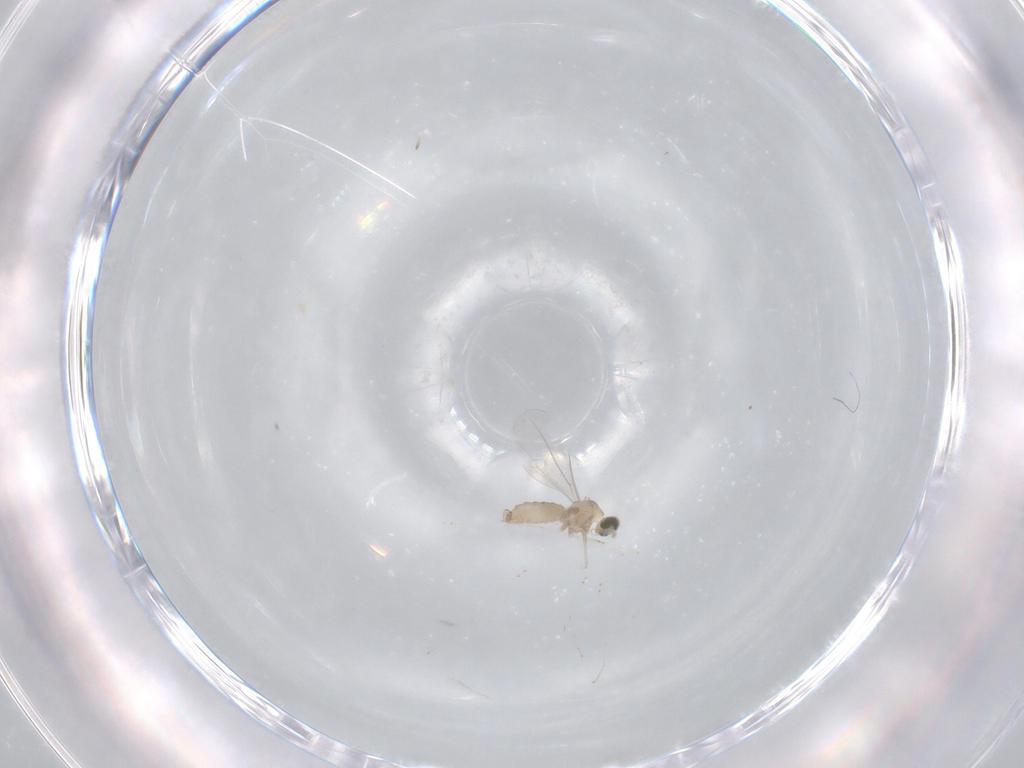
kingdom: Animalia
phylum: Arthropoda
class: Insecta
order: Diptera
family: Cecidomyiidae
